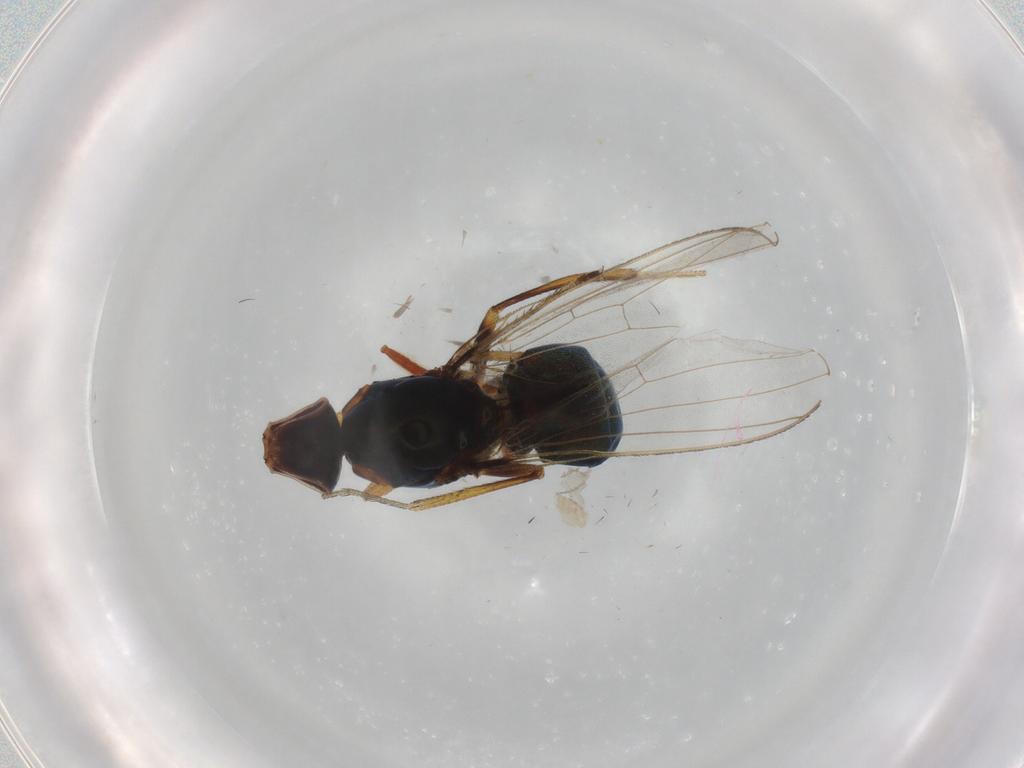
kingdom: Animalia
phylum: Arthropoda
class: Insecta
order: Diptera
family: Sepsidae
